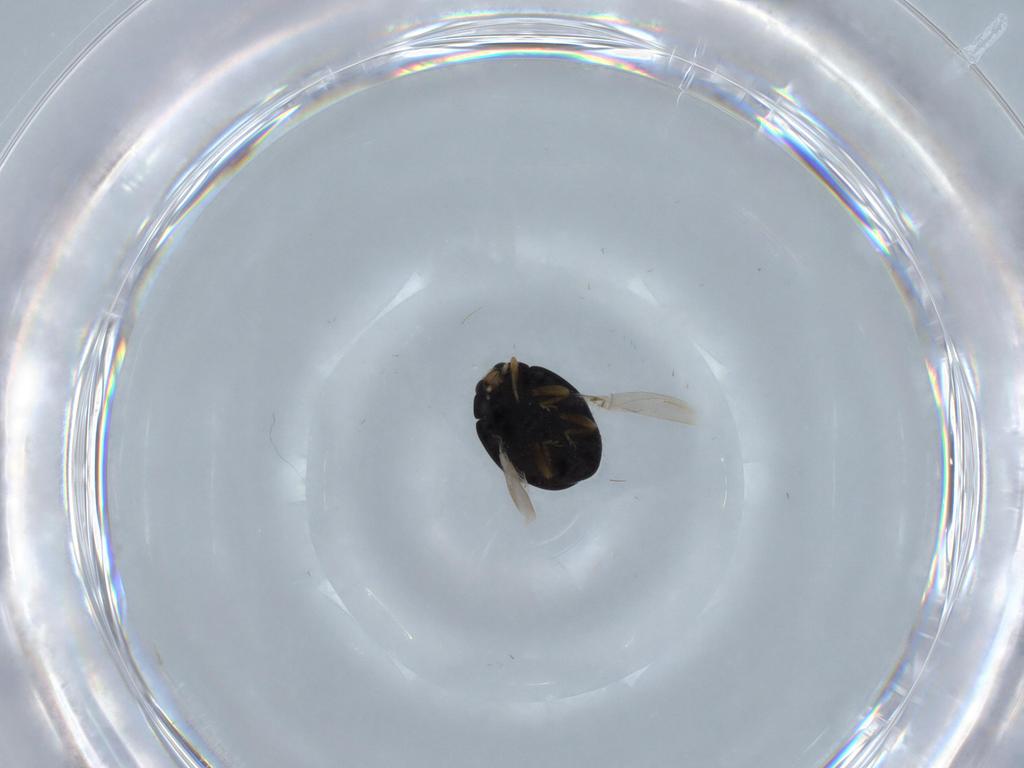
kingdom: Animalia
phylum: Arthropoda
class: Insecta
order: Coleoptera
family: Coccinellidae
